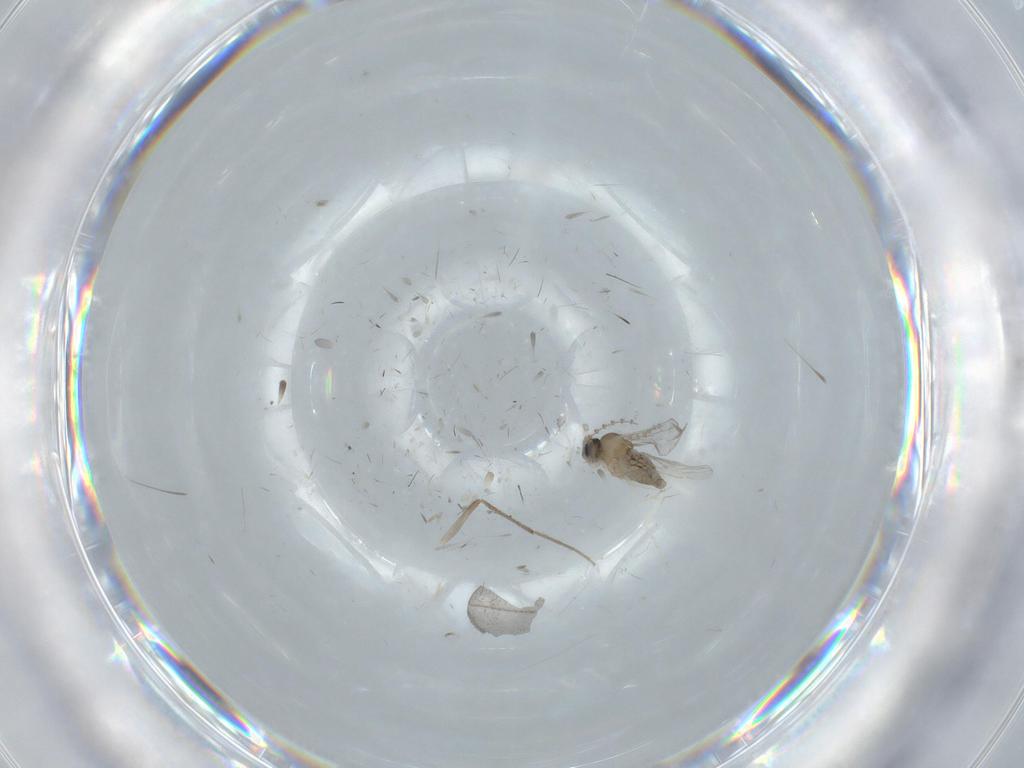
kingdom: Animalia
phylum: Arthropoda
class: Insecta
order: Diptera
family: Sphaeroceridae
